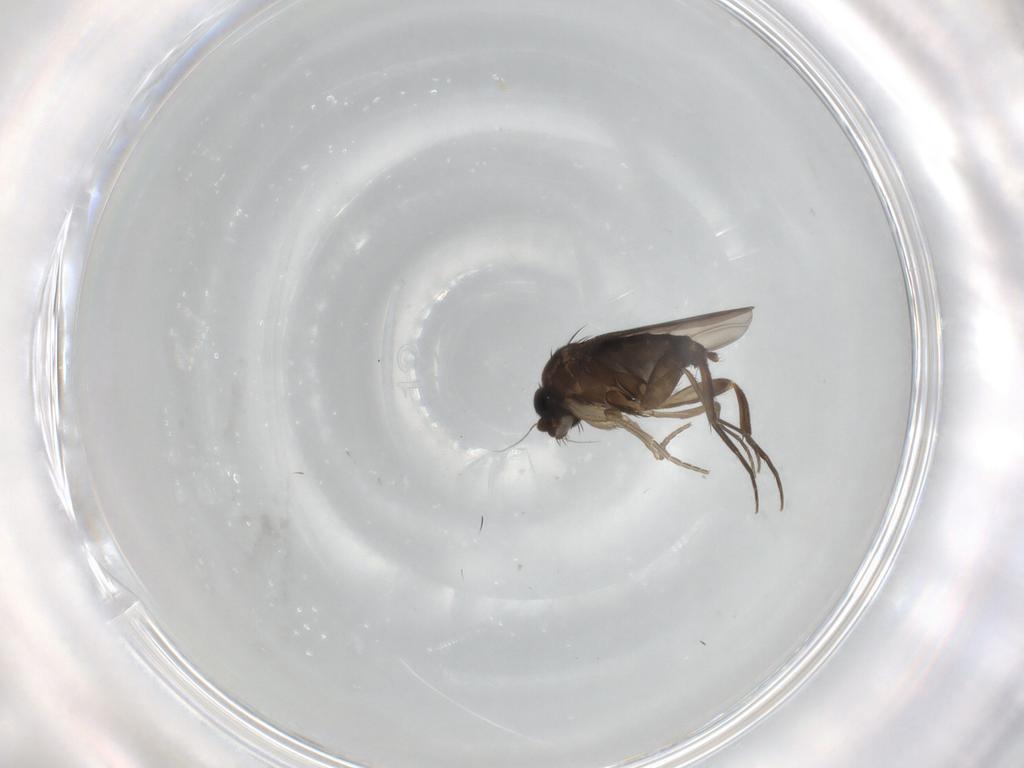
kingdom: Animalia
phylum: Arthropoda
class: Insecta
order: Diptera
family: Phoridae
